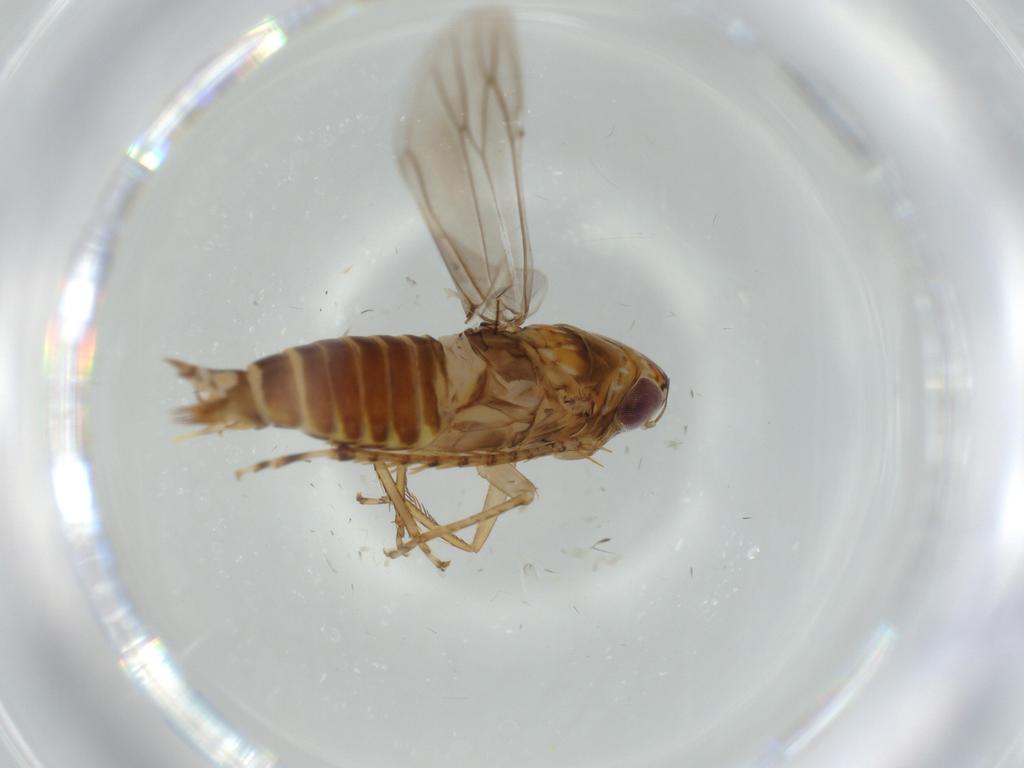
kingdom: Animalia
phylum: Arthropoda
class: Insecta
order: Hemiptera
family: Cicadellidae
